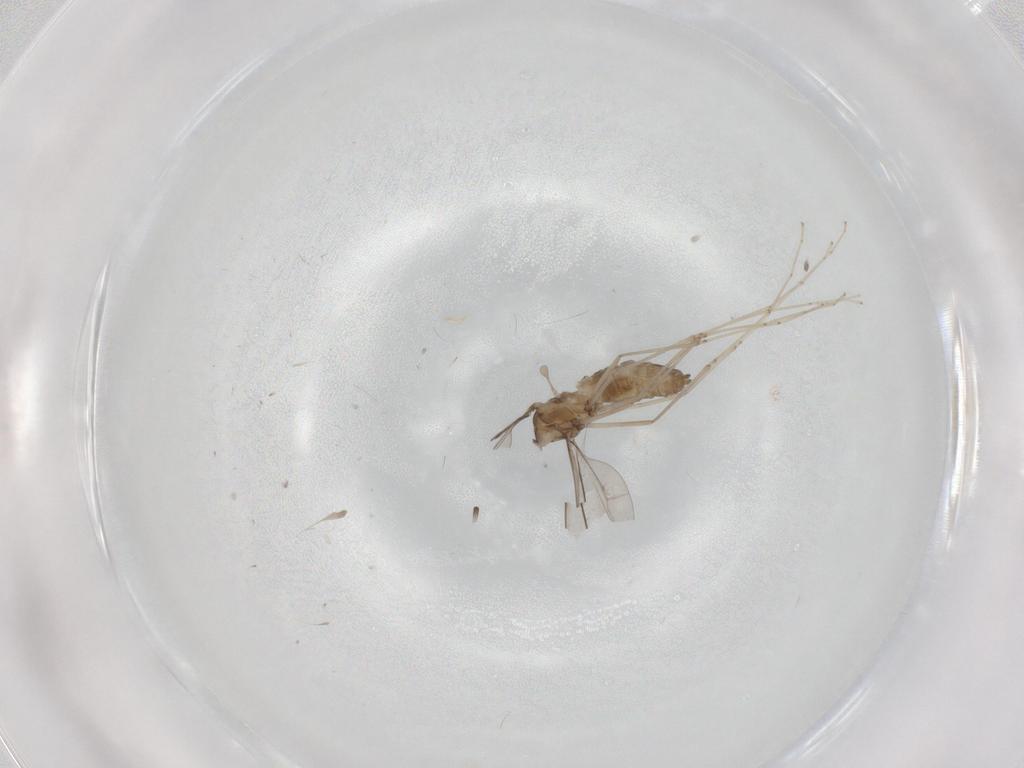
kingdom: Animalia
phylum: Arthropoda
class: Insecta
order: Diptera
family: Cecidomyiidae
